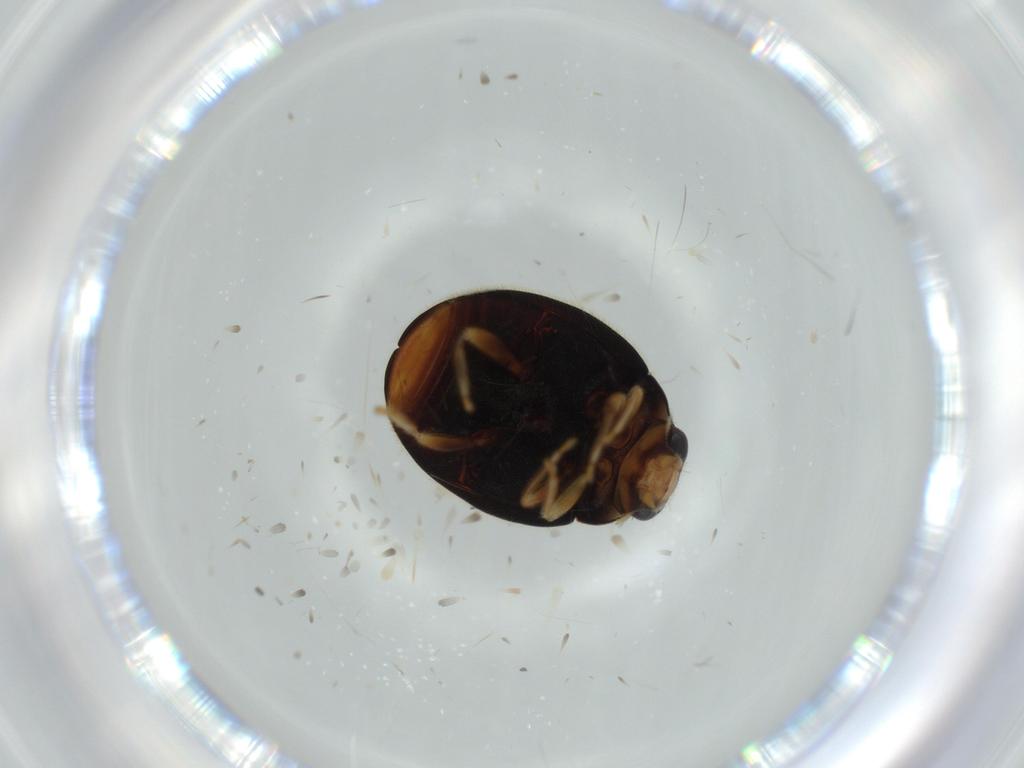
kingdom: Animalia
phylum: Arthropoda
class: Insecta
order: Coleoptera
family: Coccinellidae
